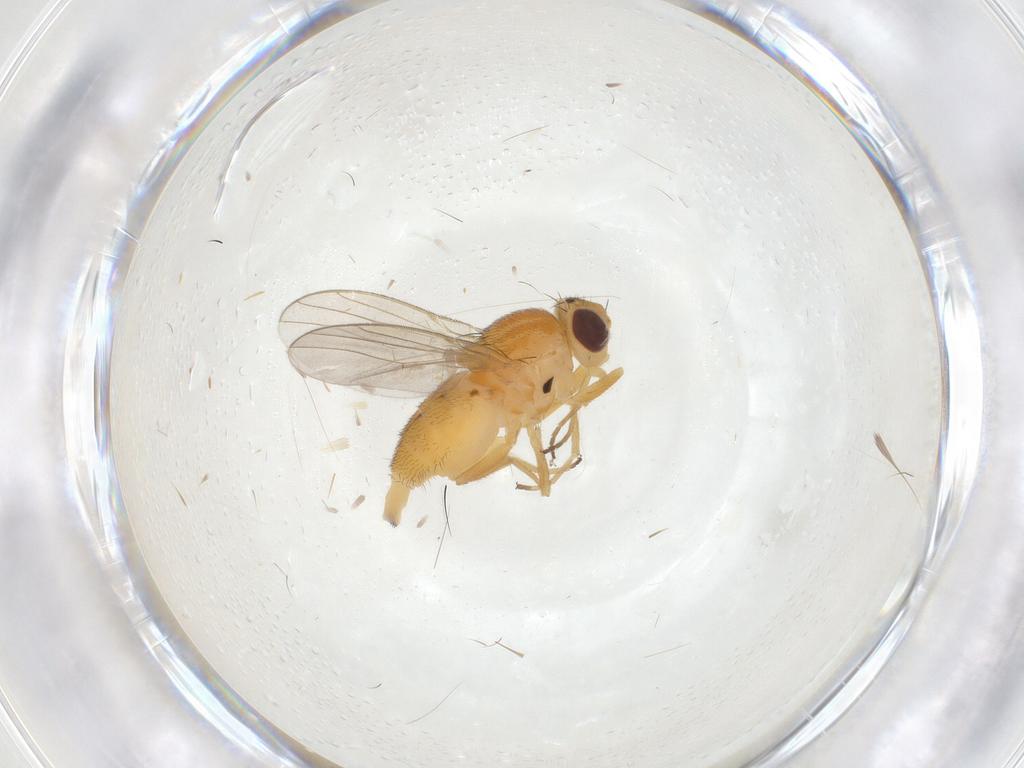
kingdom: Animalia
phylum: Arthropoda
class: Insecta
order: Diptera
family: Chloropidae
